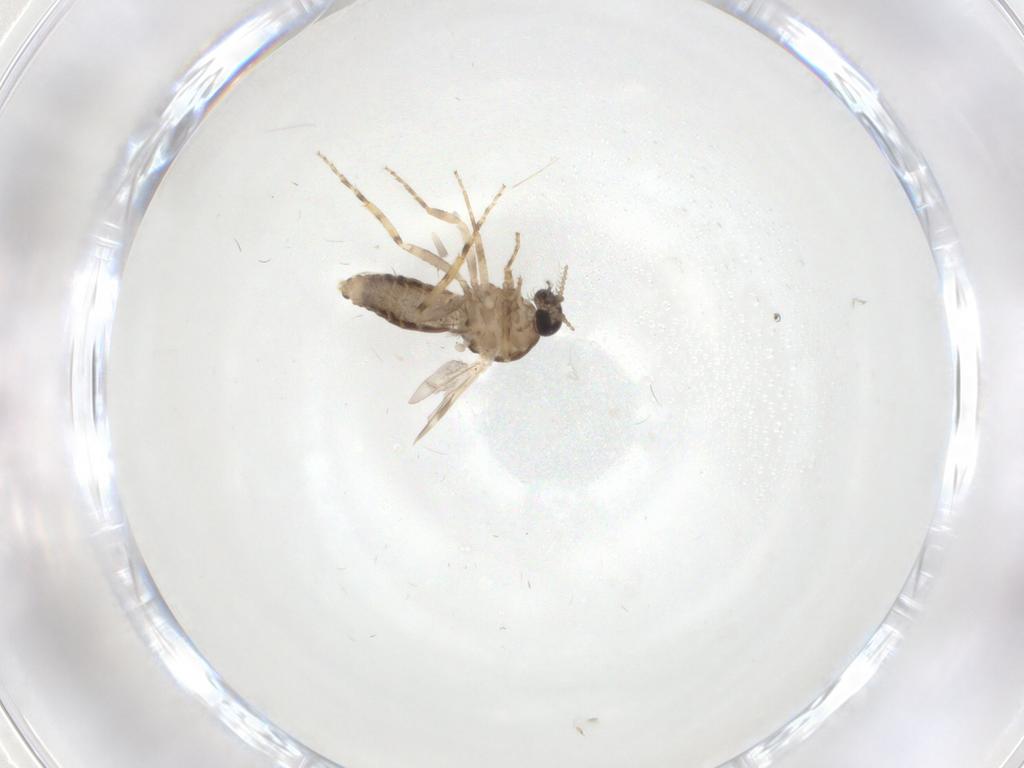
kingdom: Animalia
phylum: Arthropoda
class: Insecta
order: Diptera
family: Ceratopogonidae
